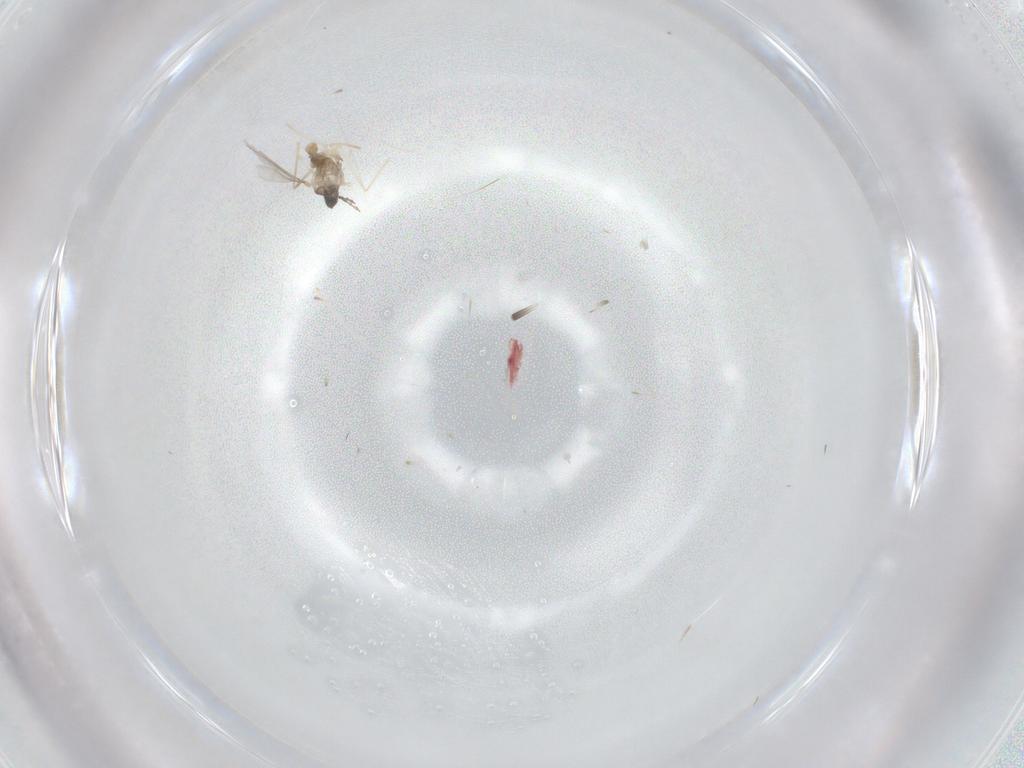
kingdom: Animalia
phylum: Arthropoda
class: Insecta
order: Diptera
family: Cecidomyiidae
